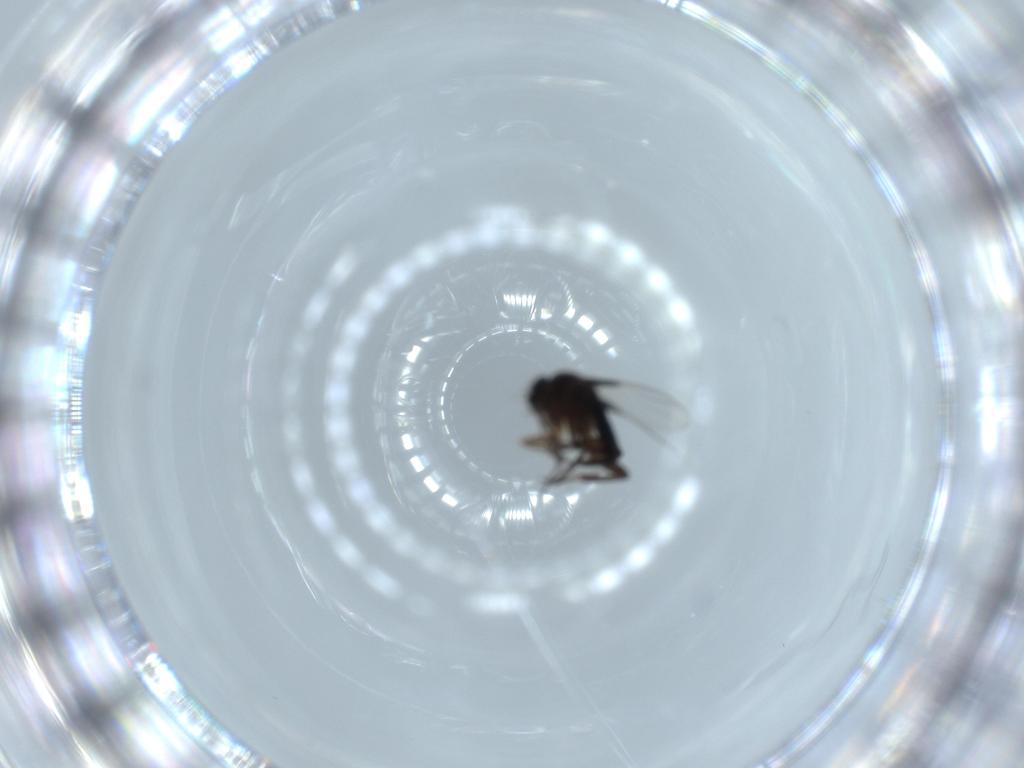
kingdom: Animalia
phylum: Arthropoda
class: Insecta
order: Diptera
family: Phoridae
